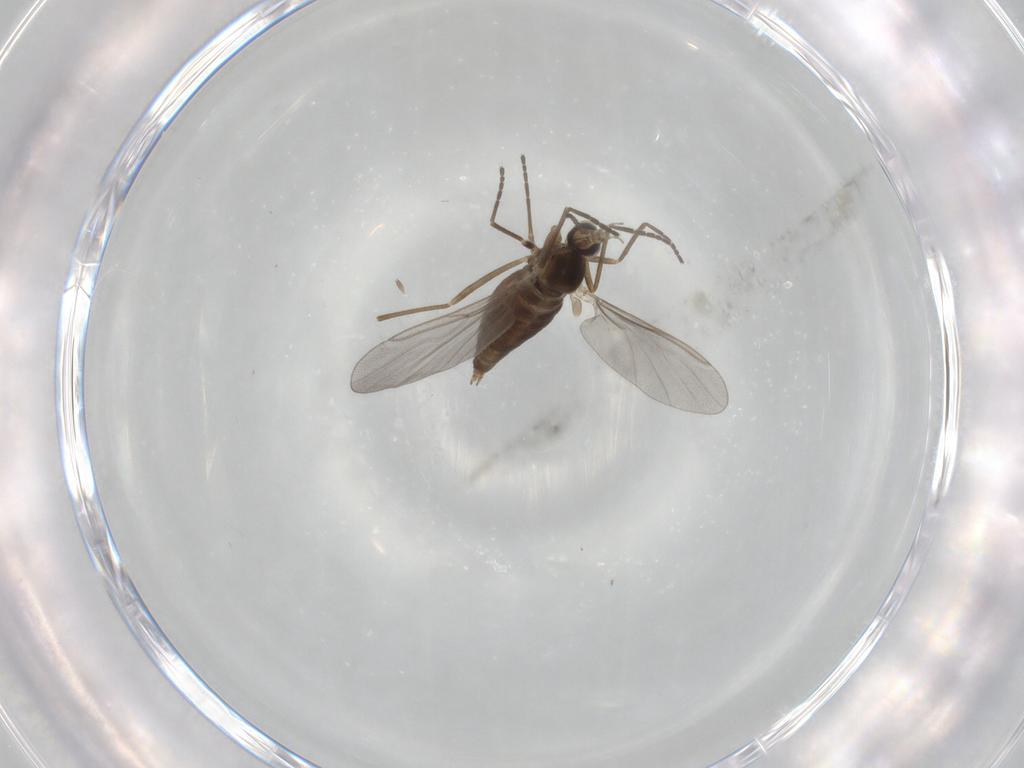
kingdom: Animalia
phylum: Arthropoda
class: Insecta
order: Diptera
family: Cecidomyiidae
